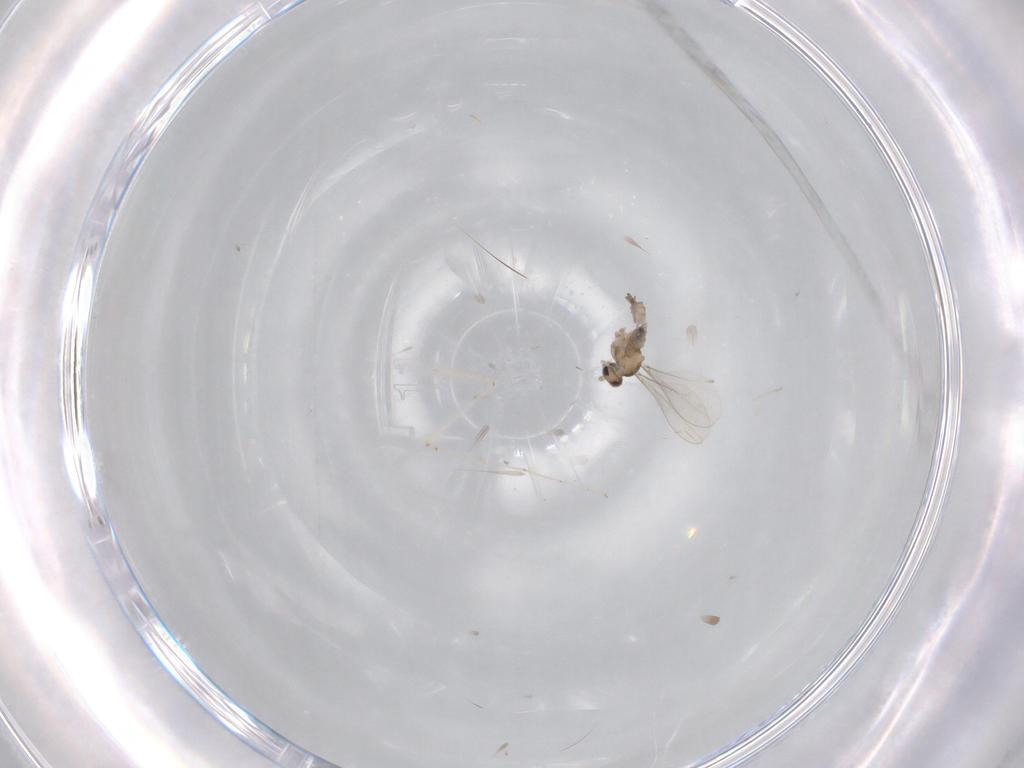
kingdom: Animalia
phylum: Arthropoda
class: Insecta
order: Diptera
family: Cecidomyiidae
